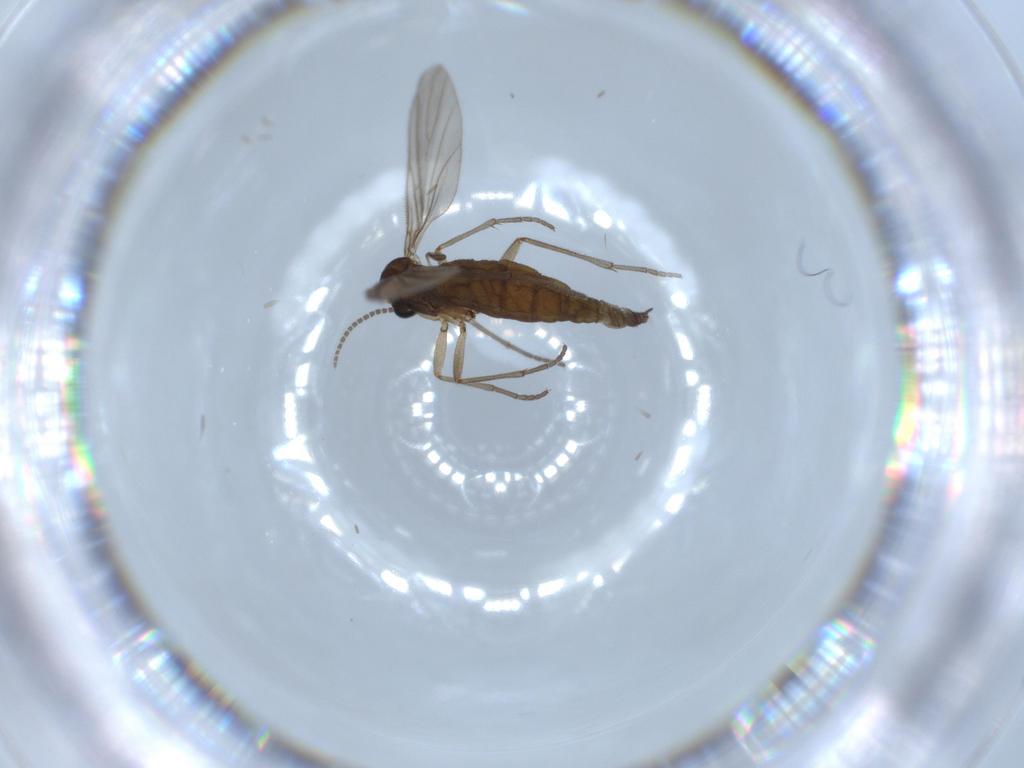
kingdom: Animalia
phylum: Arthropoda
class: Insecta
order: Diptera
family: Sciaridae
